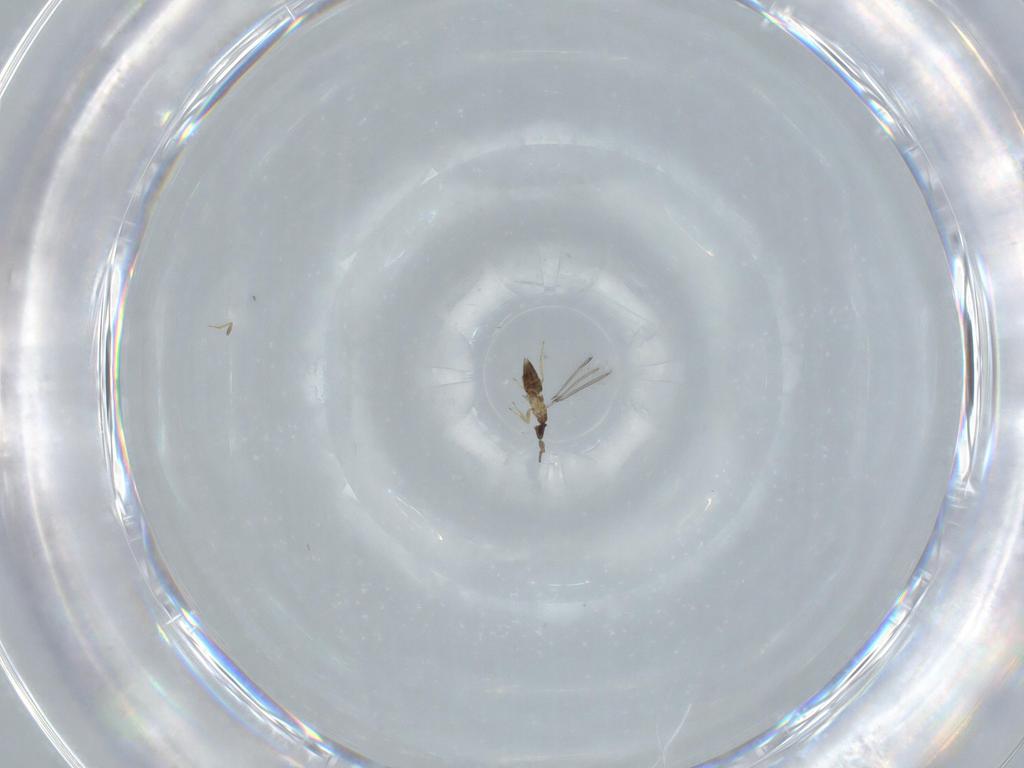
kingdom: Animalia
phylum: Arthropoda
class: Insecta
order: Hymenoptera
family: Mymaridae
